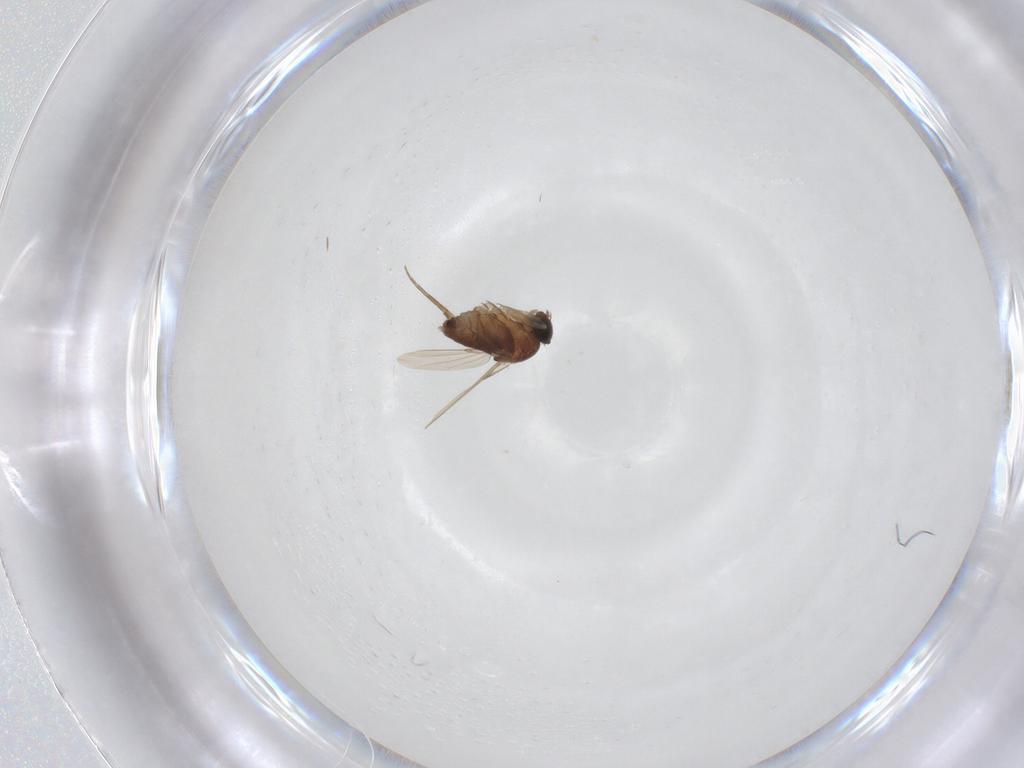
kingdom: Animalia
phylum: Arthropoda
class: Insecta
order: Diptera
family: Phoridae
